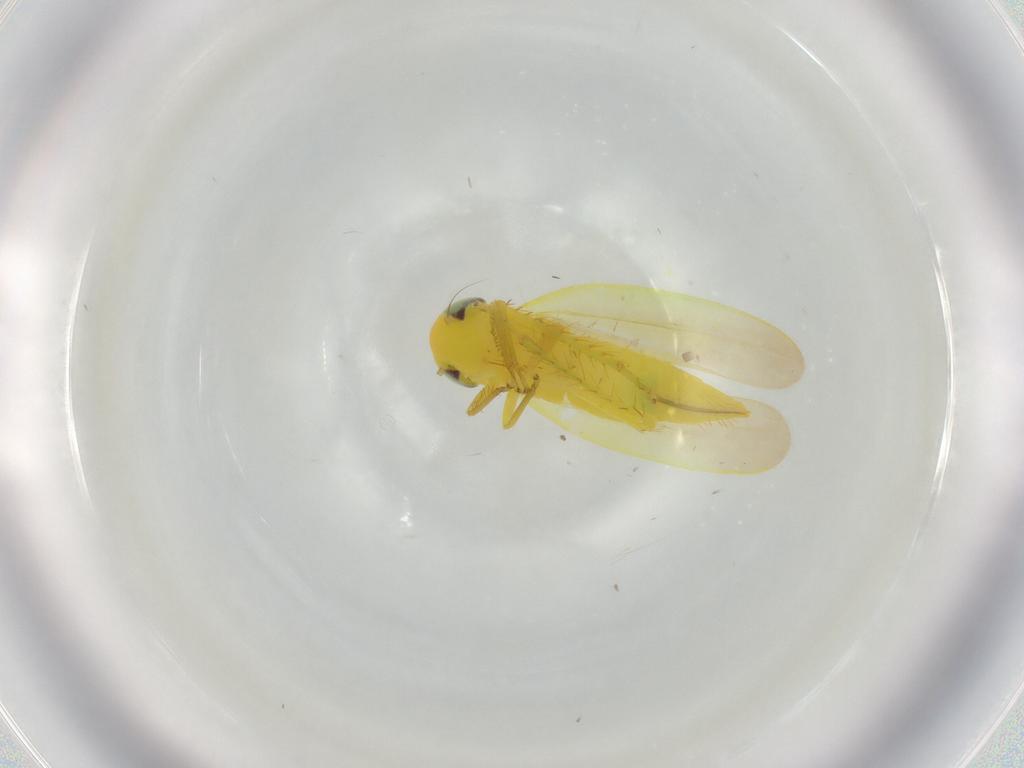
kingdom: Animalia
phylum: Arthropoda
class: Insecta
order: Hemiptera
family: Cicadellidae
